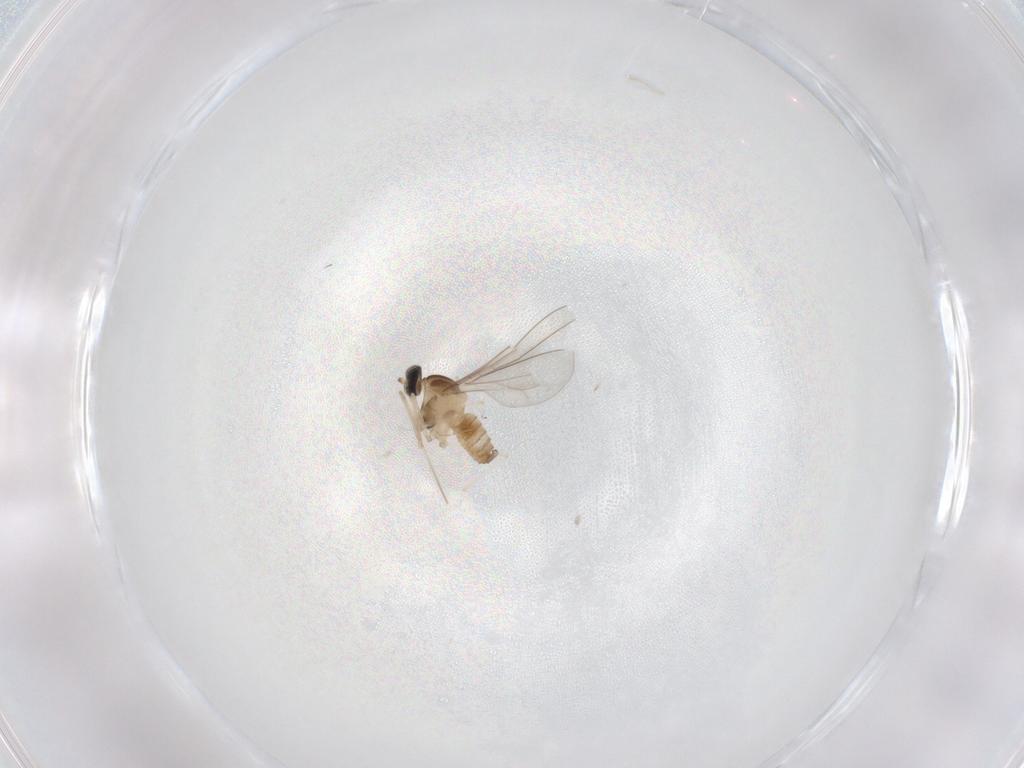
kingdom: Animalia
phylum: Arthropoda
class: Insecta
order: Diptera
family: Cecidomyiidae
